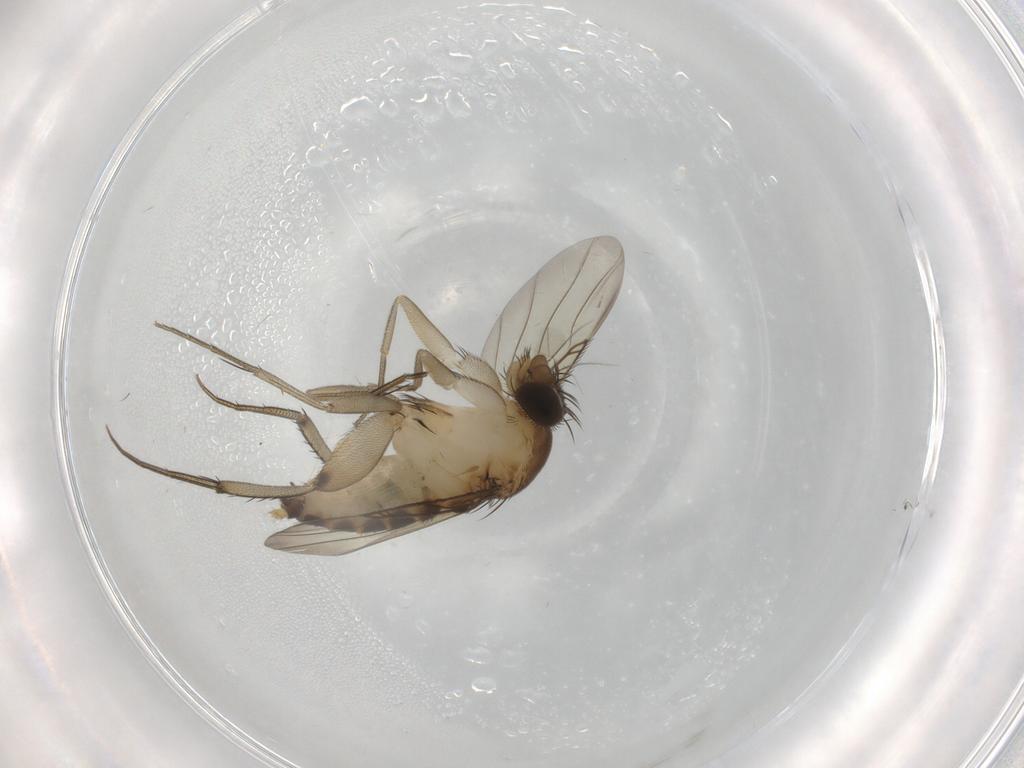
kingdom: Animalia
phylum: Arthropoda
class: Insecta
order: Diptera
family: Phoridae
